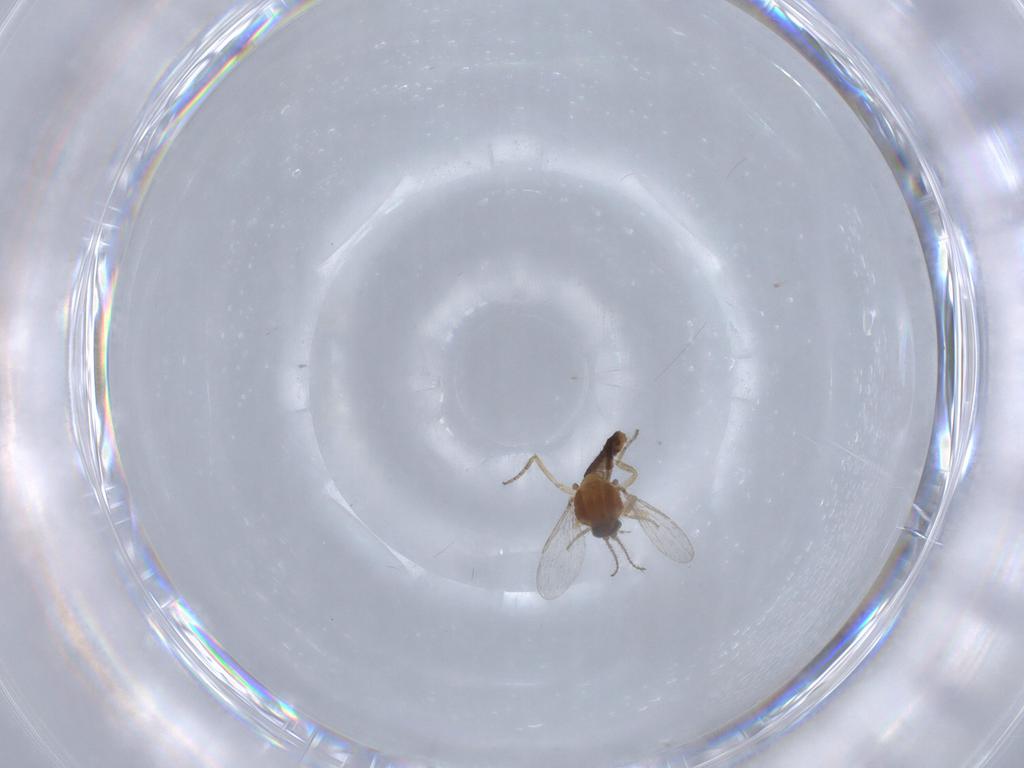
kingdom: Animalia
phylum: Arthropoda
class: Insecta
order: Diptera
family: Ceratopogonidae
